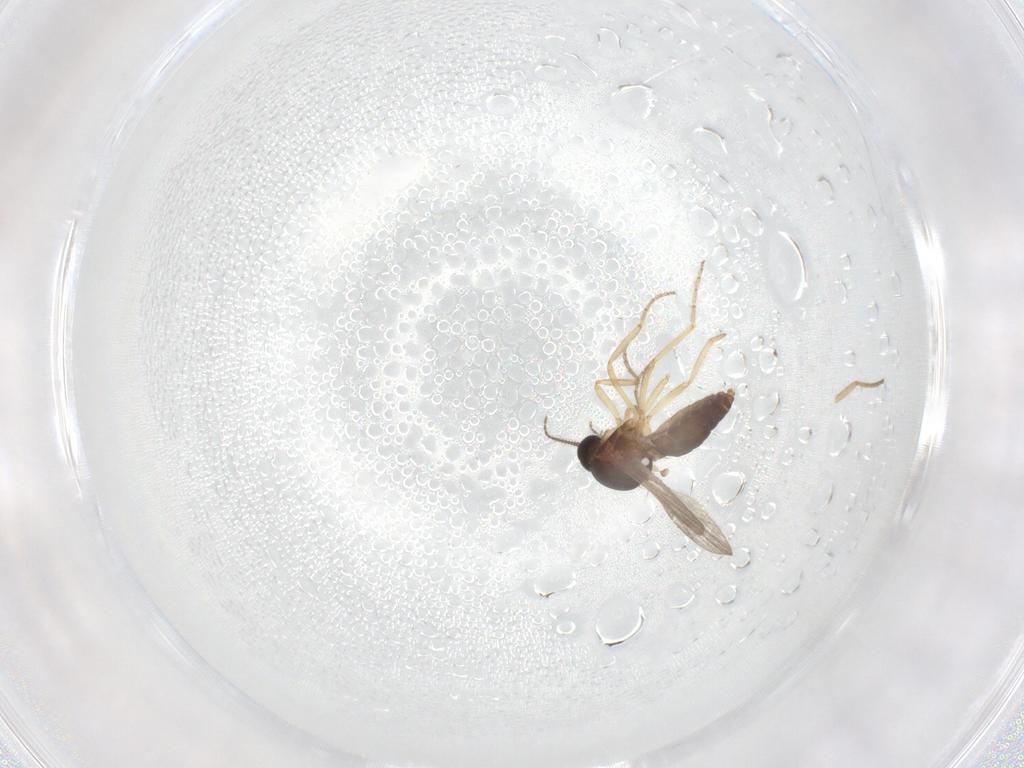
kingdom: Animalia
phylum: Arthropoda
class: Insecta
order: Diptera
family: Ceratopogonidae
